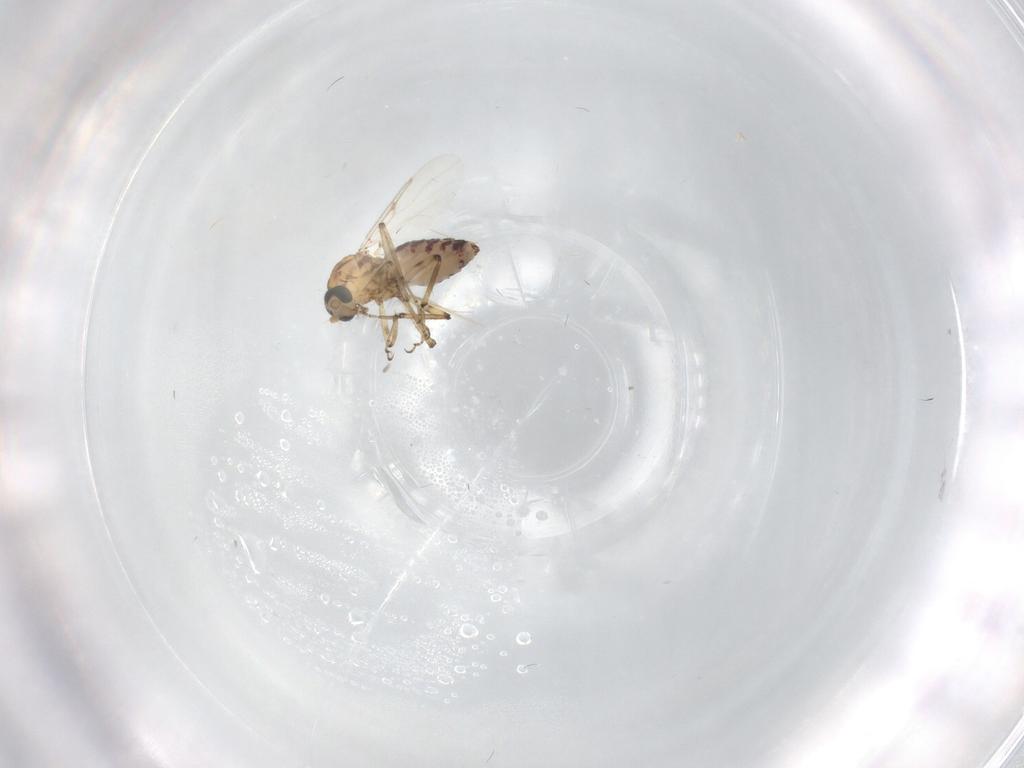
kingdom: Animalia
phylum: Arthropoda
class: Insecta
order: Diptera
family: Ceratopogonidae
